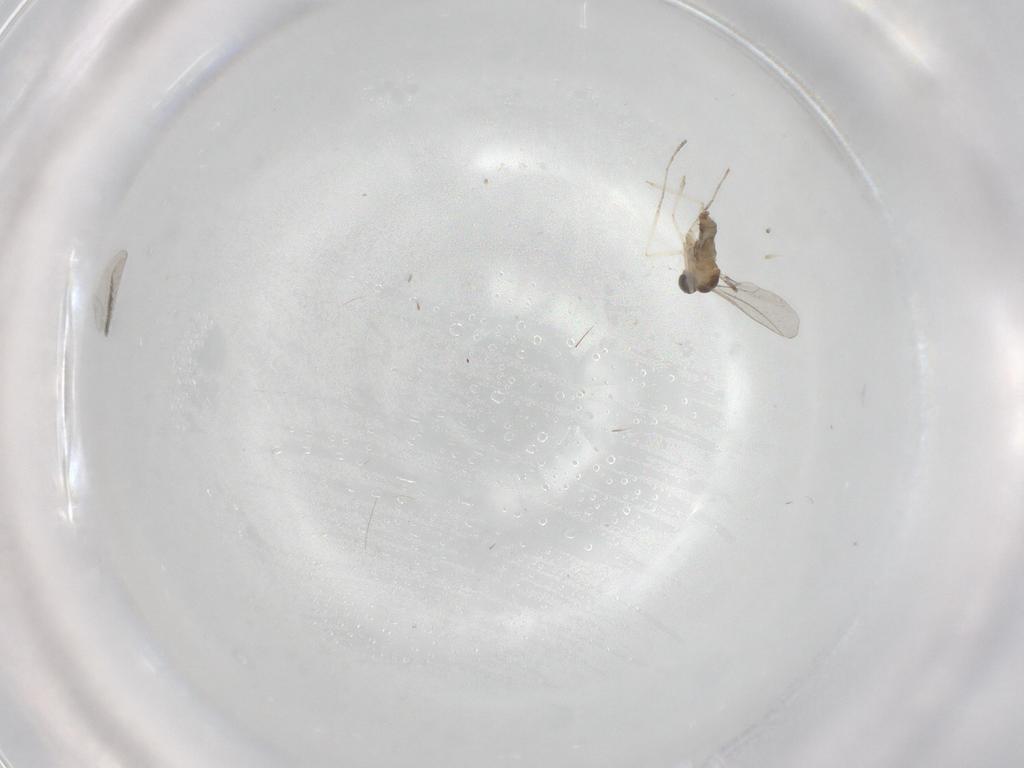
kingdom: Animalia
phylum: Arthropoda
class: Insecta
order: Diptera
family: Cecidomyiidae
